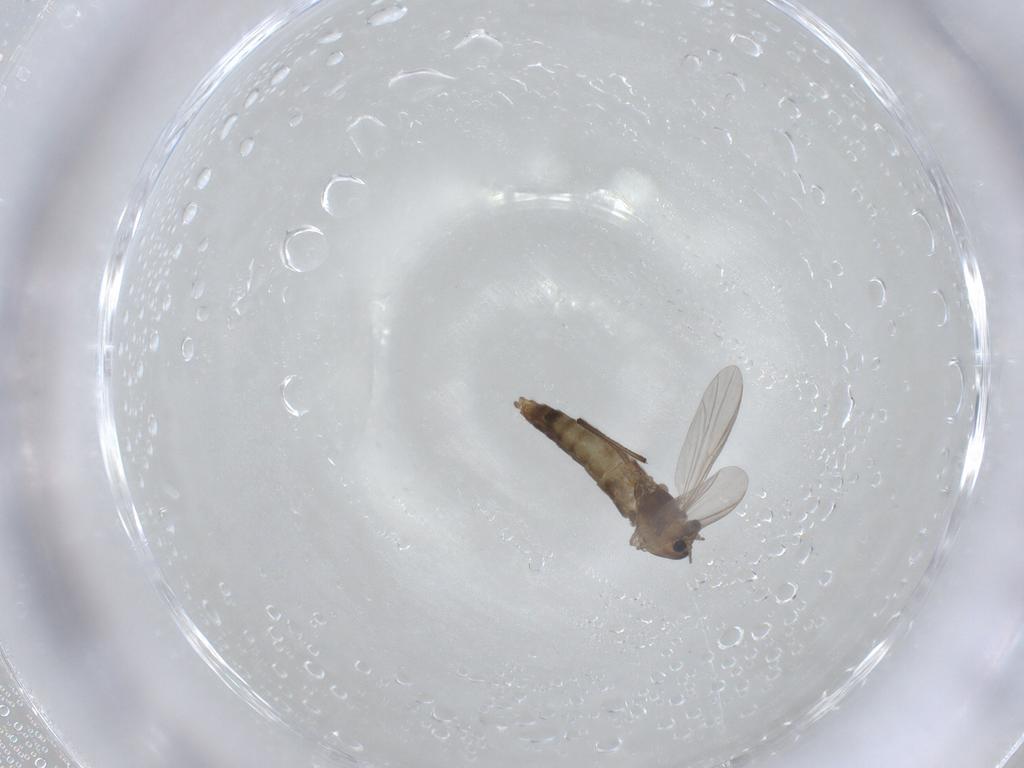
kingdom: Animalia
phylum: Arthropoda
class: Insecta
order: Diptera
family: Chironomidae
